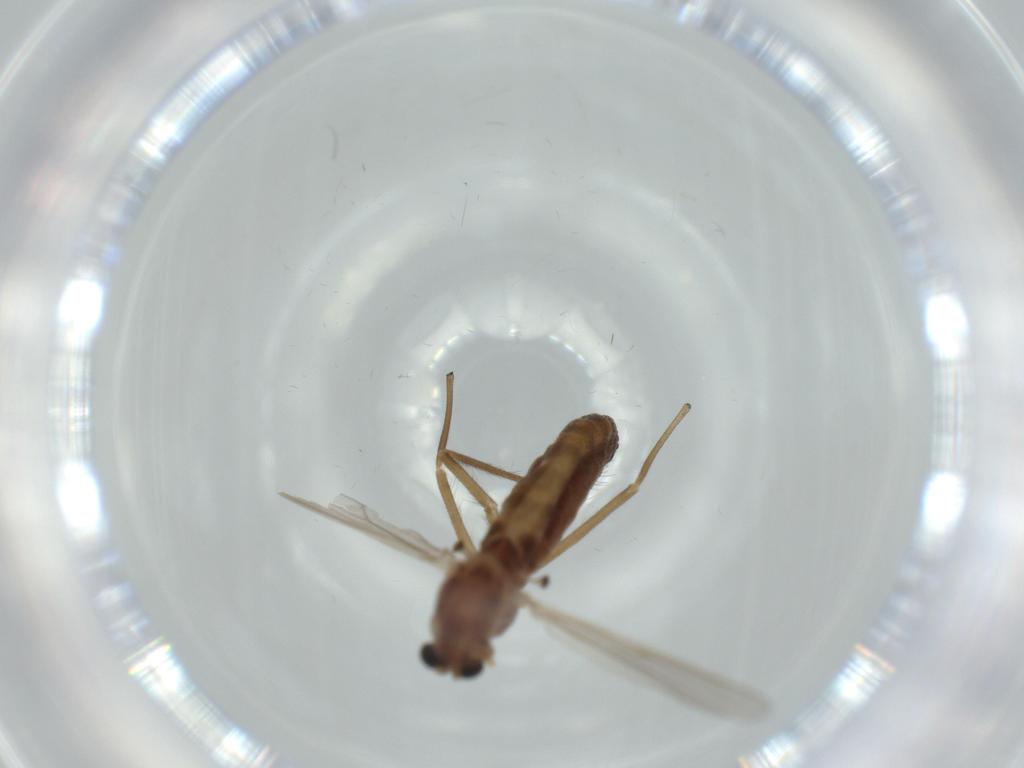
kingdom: Animalia
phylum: Arthropoda
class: Insecta
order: Diptera
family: Chironomidae
